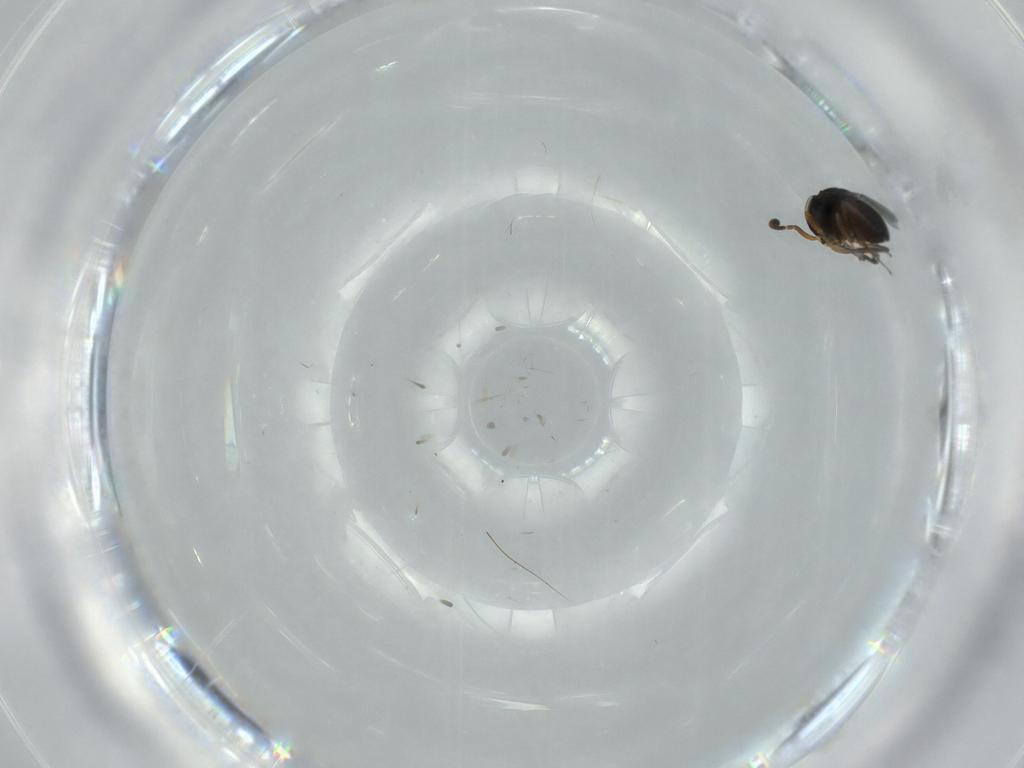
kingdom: Animalia
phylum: Arthropoda
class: Insecta
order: Coleoptera
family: Curculionidae
